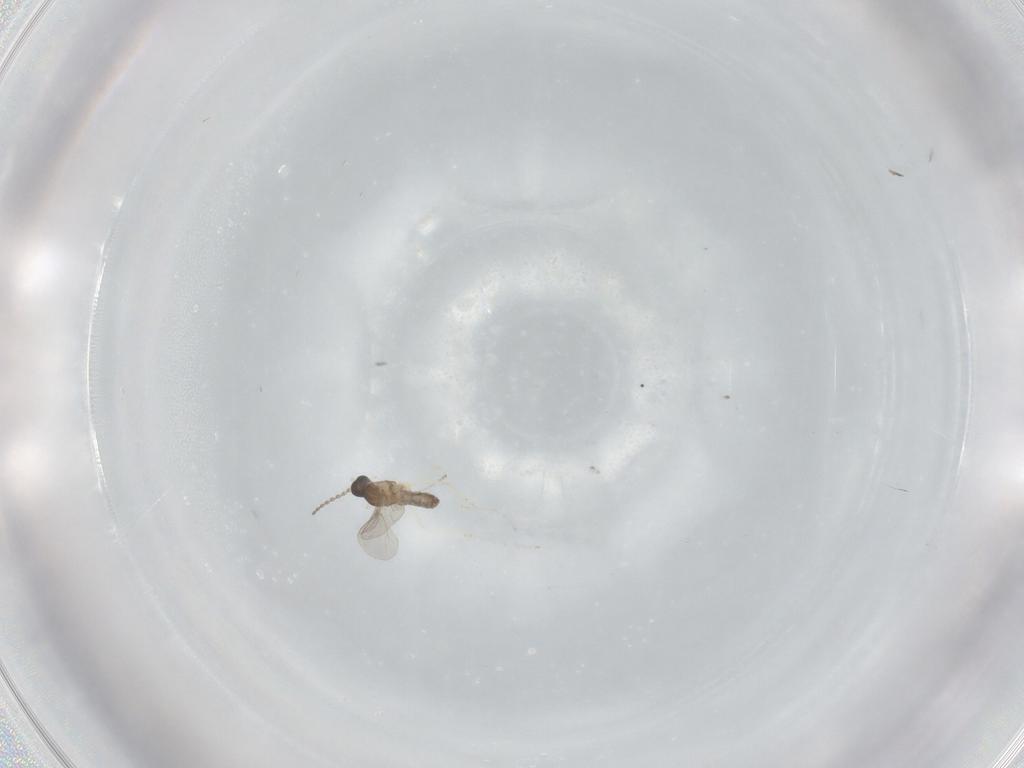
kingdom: Animalia
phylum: Arthropoda
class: Insecta
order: Diptera
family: Cecidomyiidae
